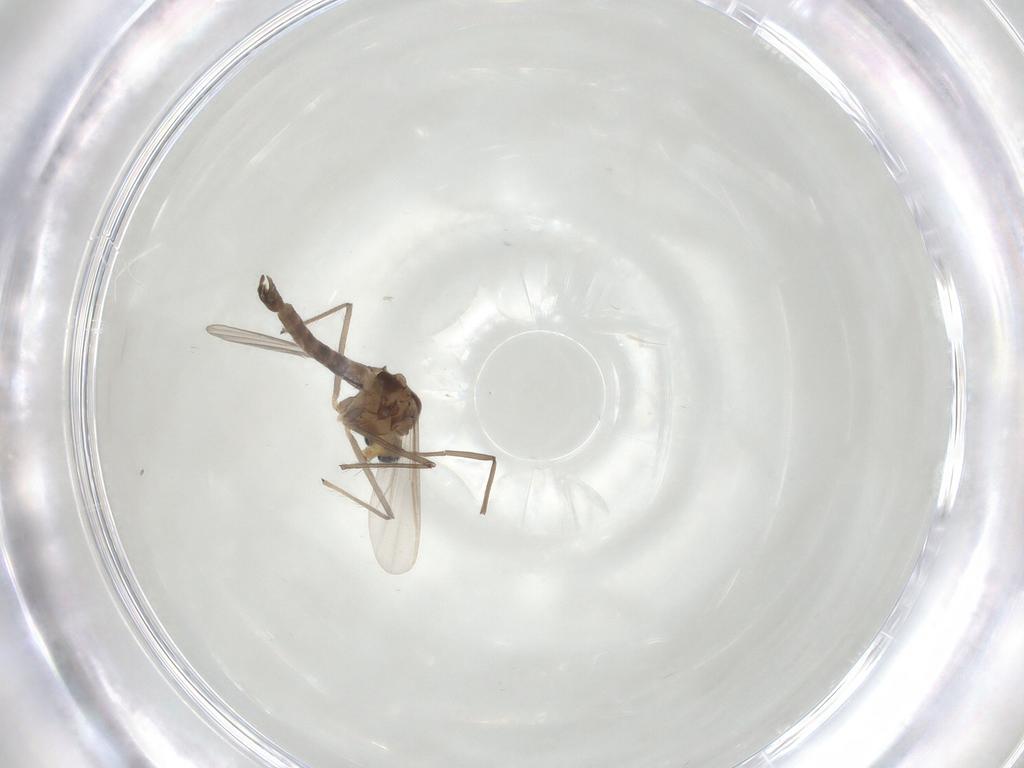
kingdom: Animalia
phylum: Arthropoda
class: Insecta
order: Diptera
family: Chironomidae
